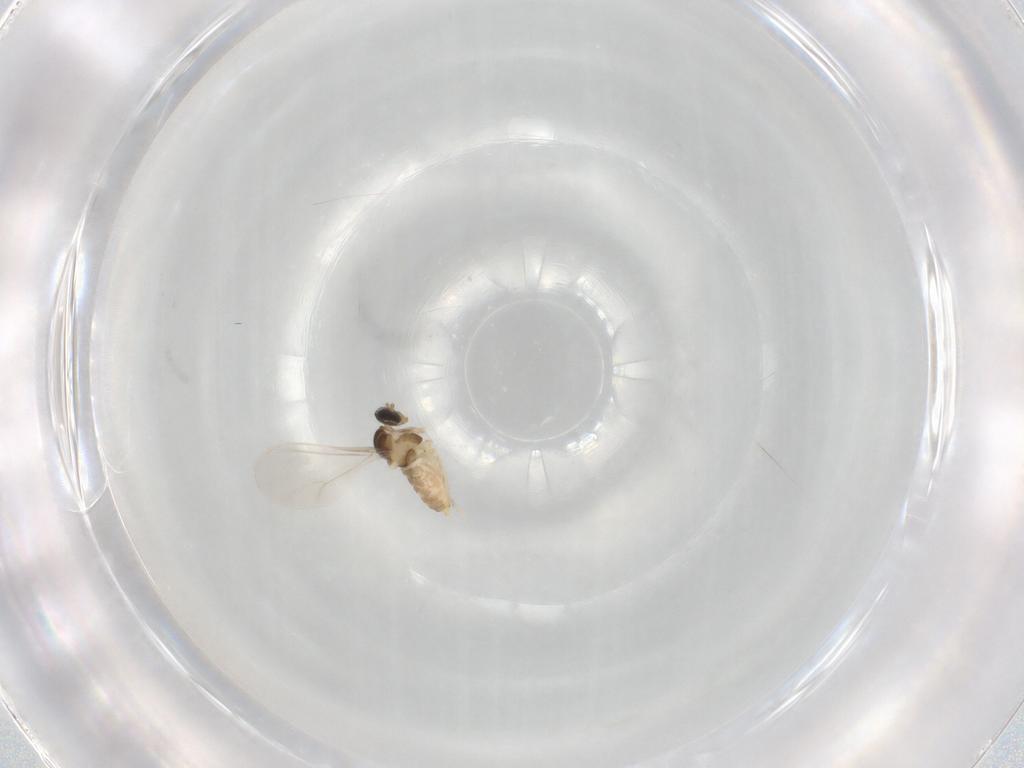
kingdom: Animalia
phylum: Arthropoda
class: Insecta
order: Diptera
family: Cecidomyiidae
